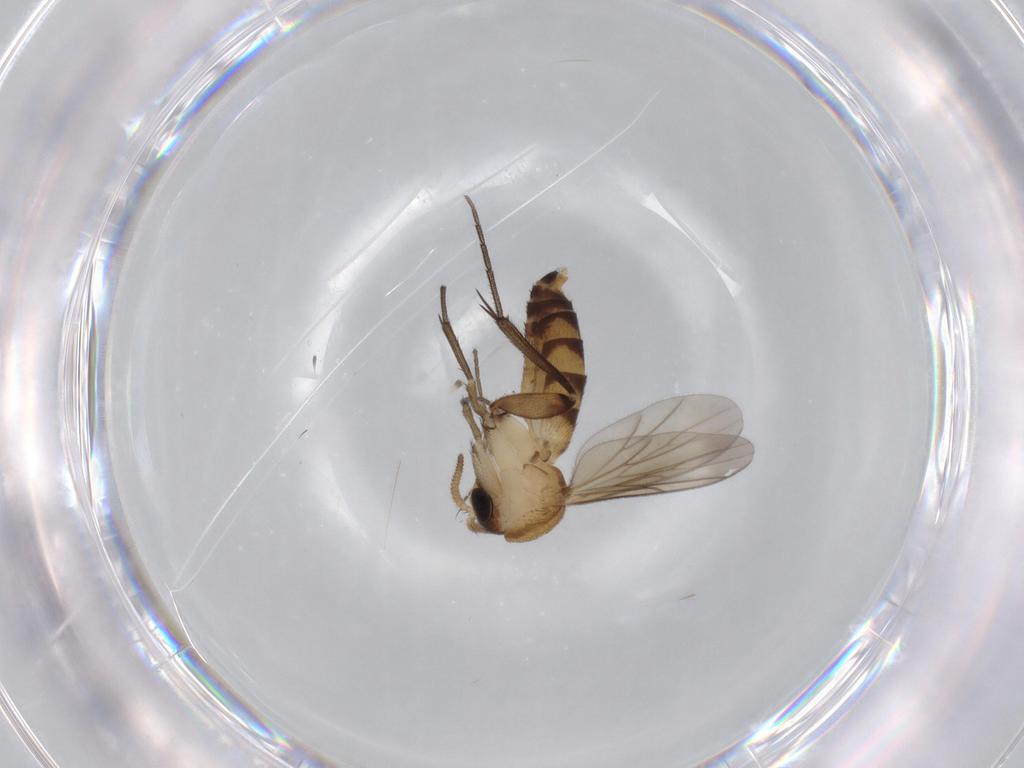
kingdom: Animalia
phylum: Arthropoda
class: Insecta
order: Diptera
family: Sciaridae
